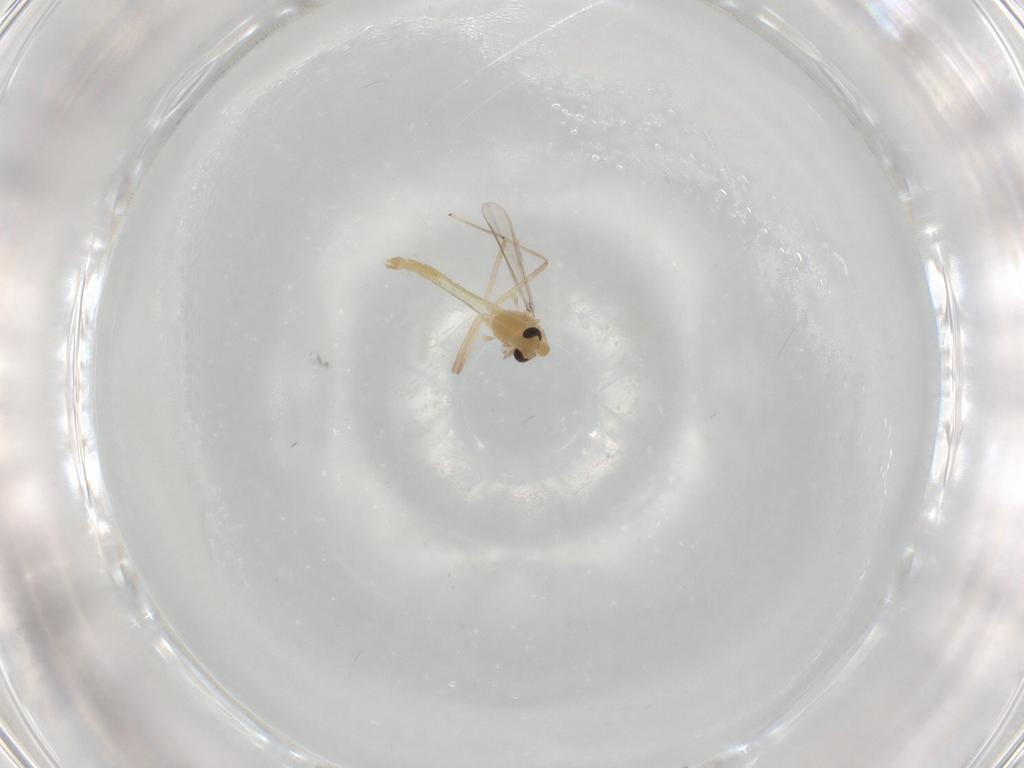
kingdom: Animalia
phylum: Arthropoda
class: Insecta
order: Diptera
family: Chironomidae
